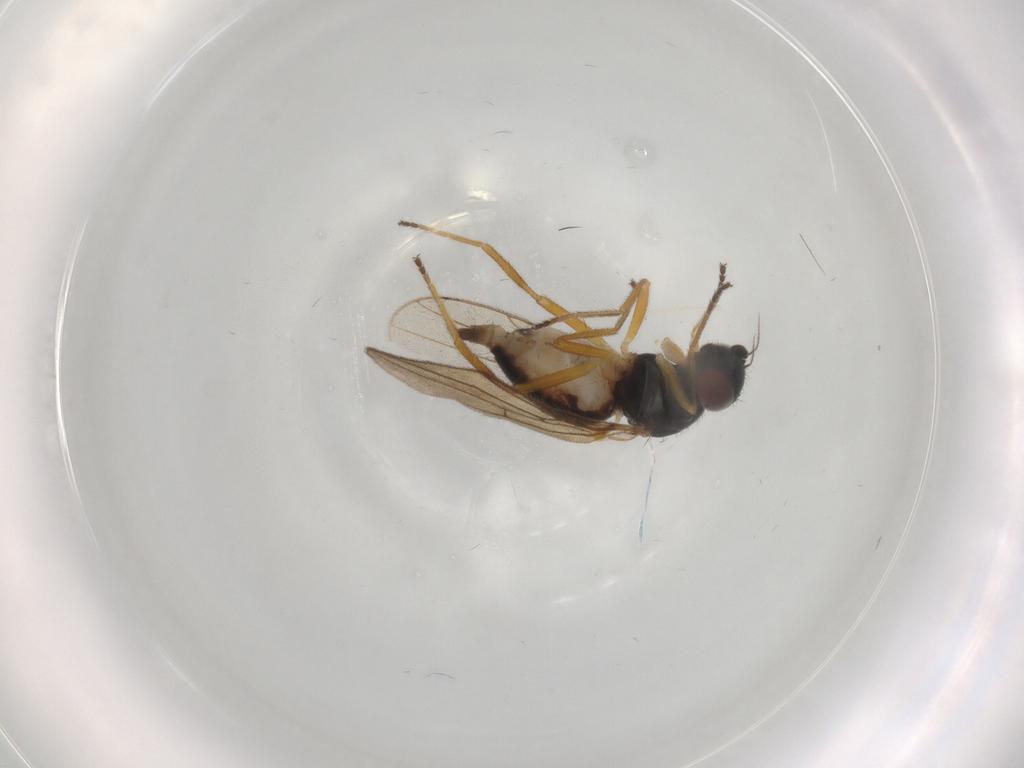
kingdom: Animalia
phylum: Arthropoda
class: Insecta
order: Diptera
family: Chloropidae
